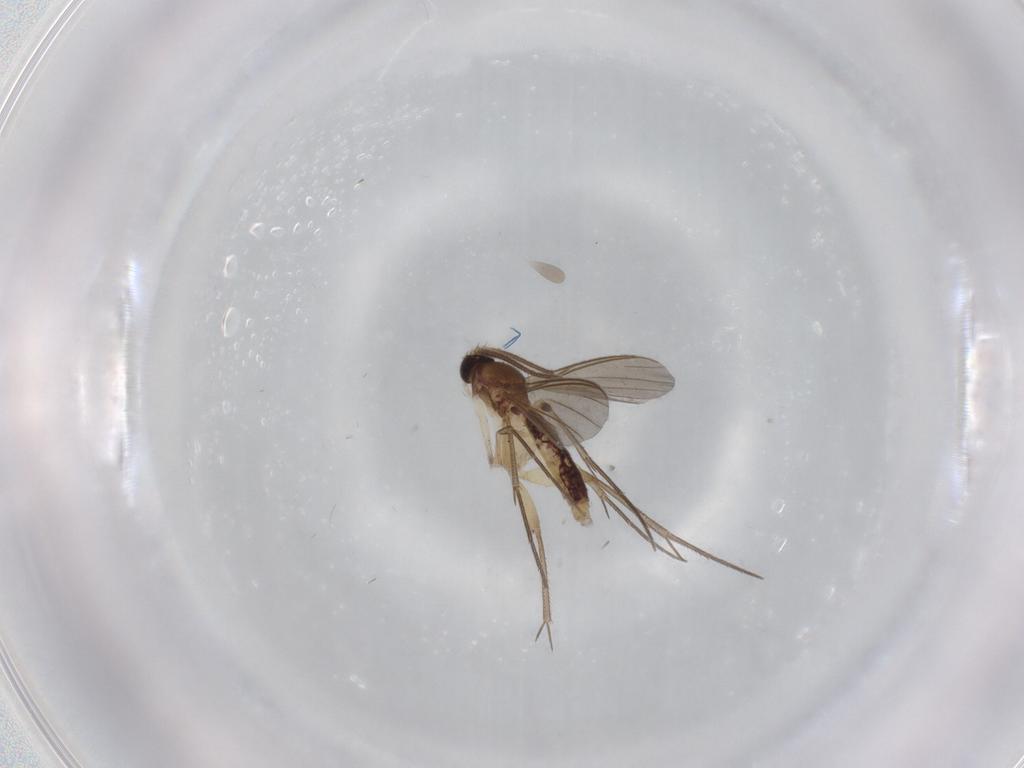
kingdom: Animalia
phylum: Arthropoda
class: Insecta
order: Diptera
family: Mycetophilidae
